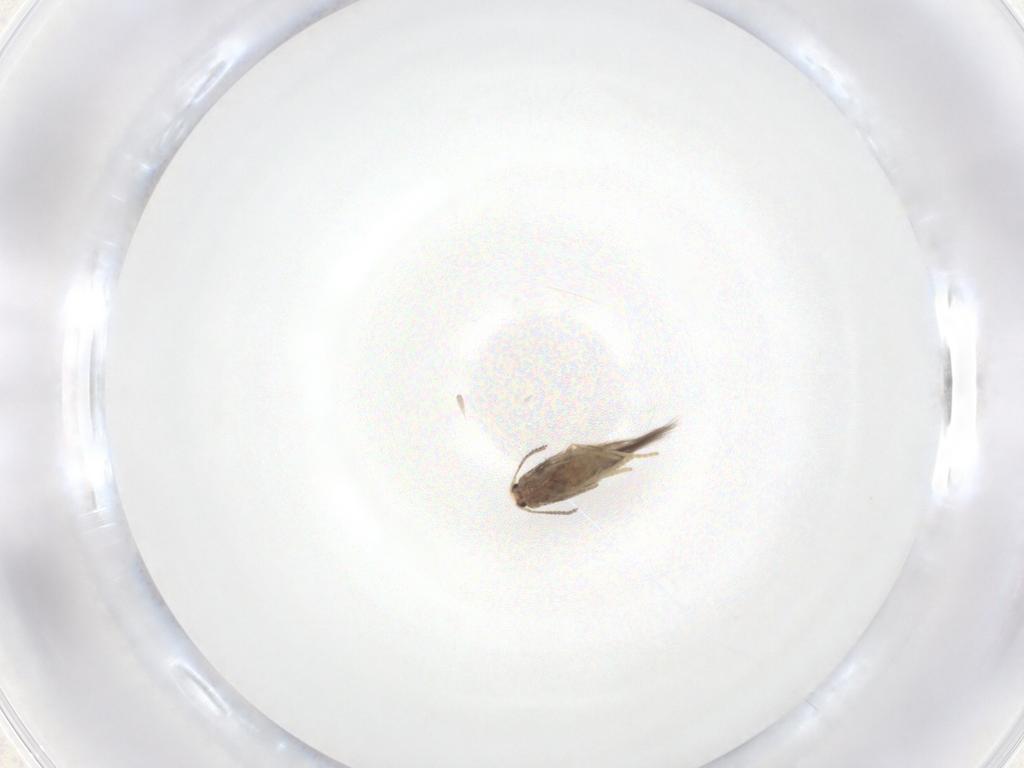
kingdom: Animalia
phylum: Arthropoda
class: Insecta
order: Lepidoptera
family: Nepticulidae
